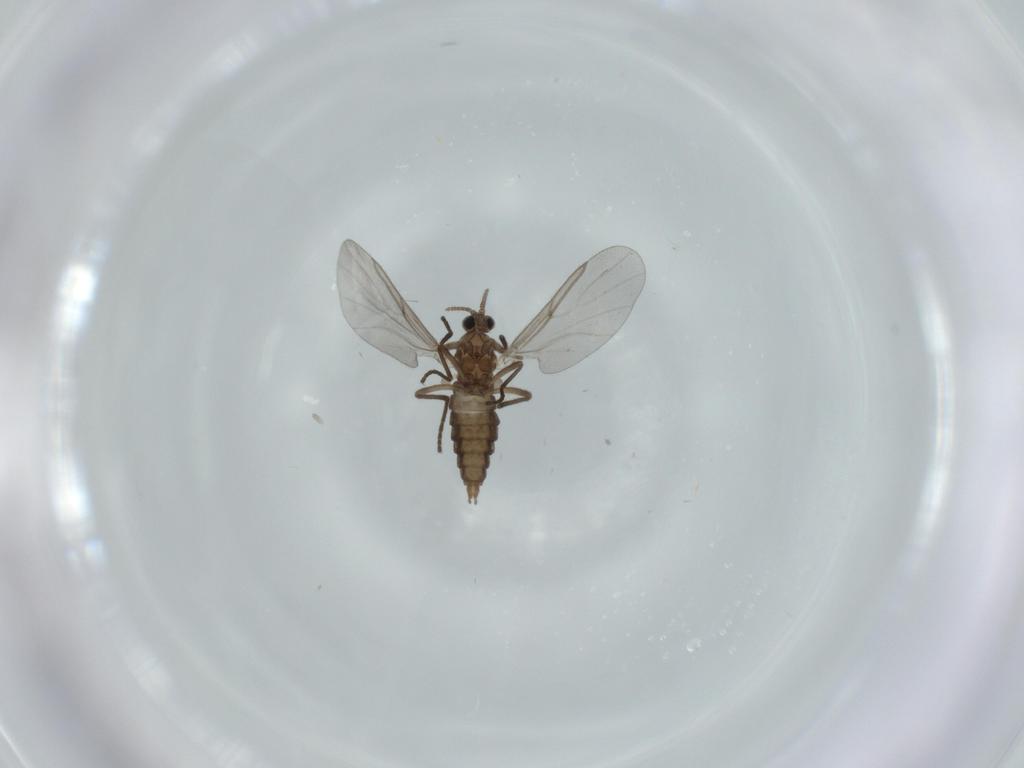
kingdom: Animalia
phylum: Arthropoda
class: Insecta
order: Diptera
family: Cecidomyiidae
